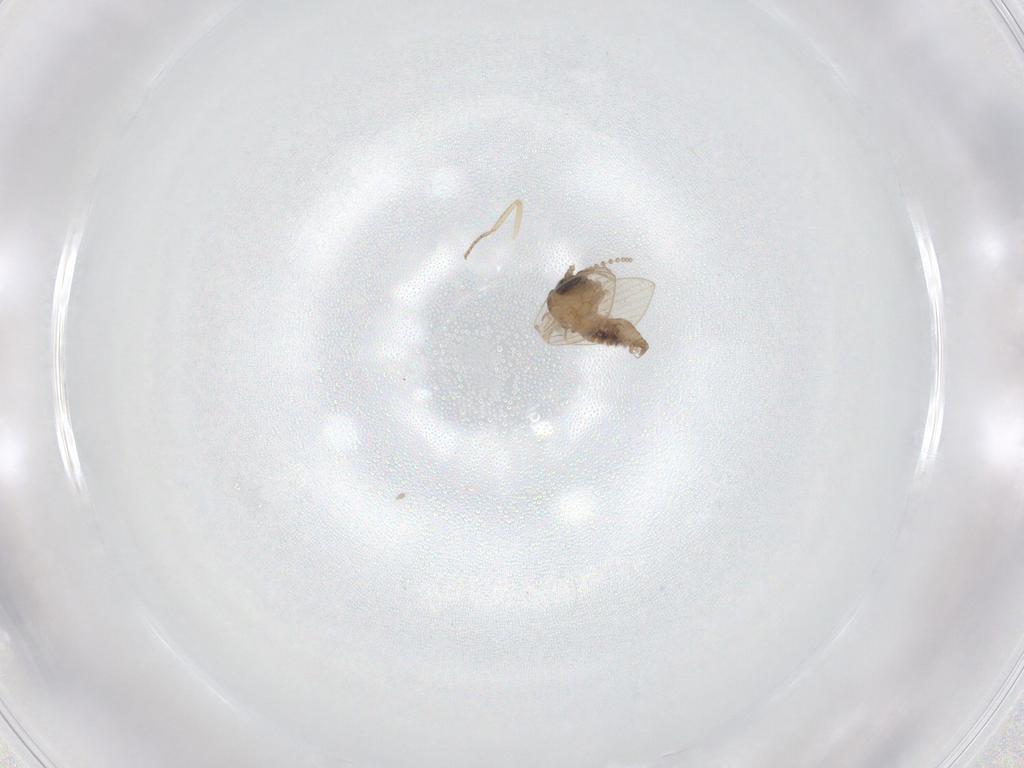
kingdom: Animalia
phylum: Arthropoda
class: Insecta
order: Diptera
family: Psychodidae
